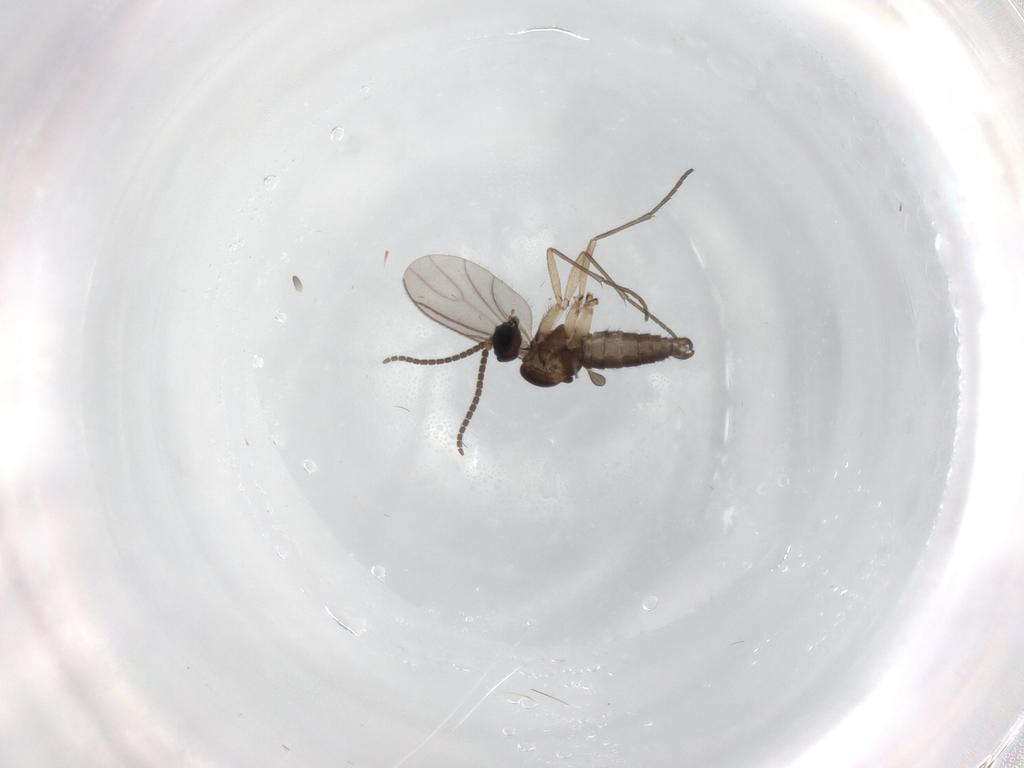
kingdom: Animalia
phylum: Arthropoda
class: Insecta
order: Diptera
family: Sciaridae
